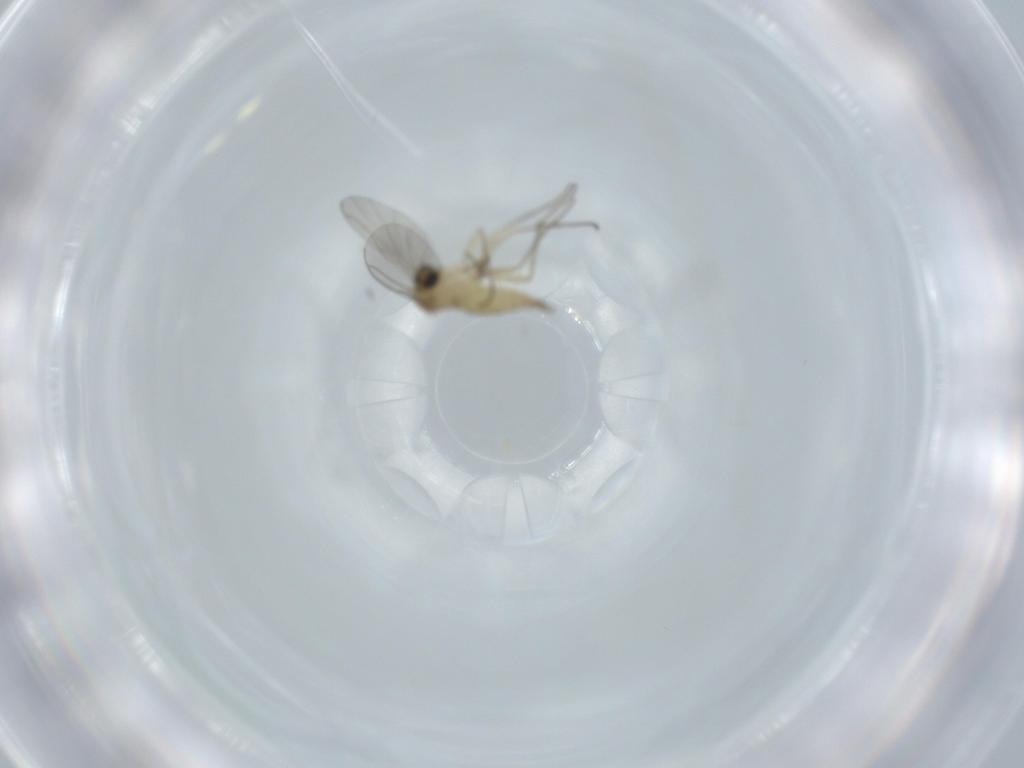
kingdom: Animalia
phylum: Arthropoda
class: Insecta
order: Diptera
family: Sciaridae
